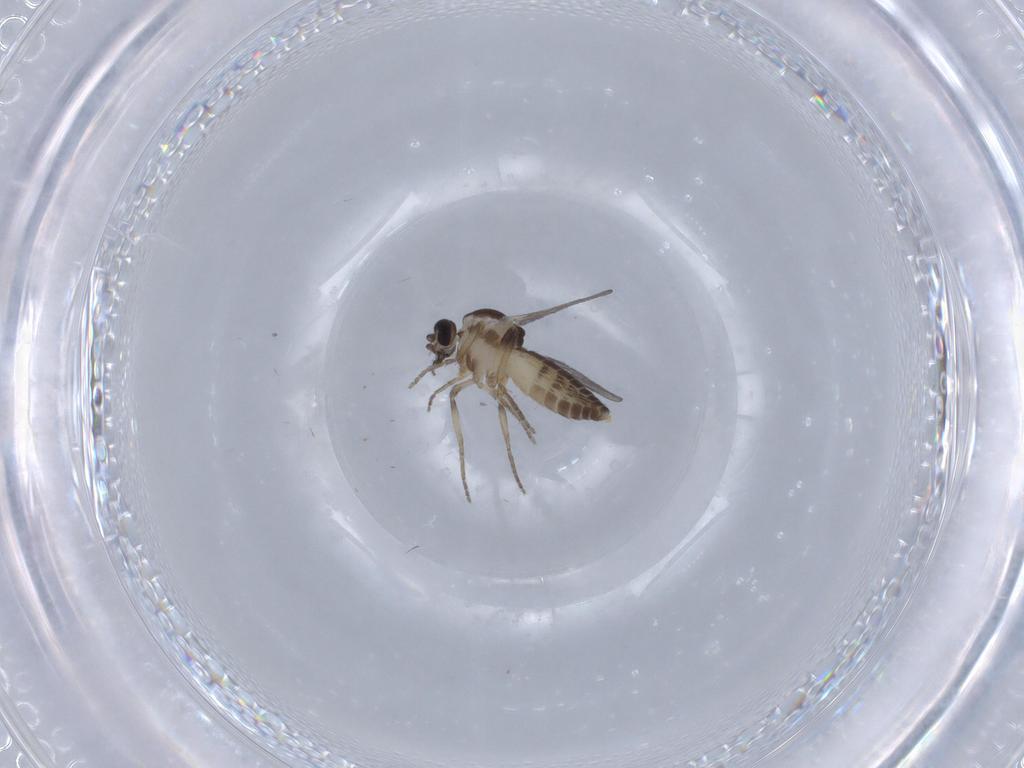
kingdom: Animalia
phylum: Arthropoda
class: Insecta
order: Diptera
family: Ceratopogonidae
